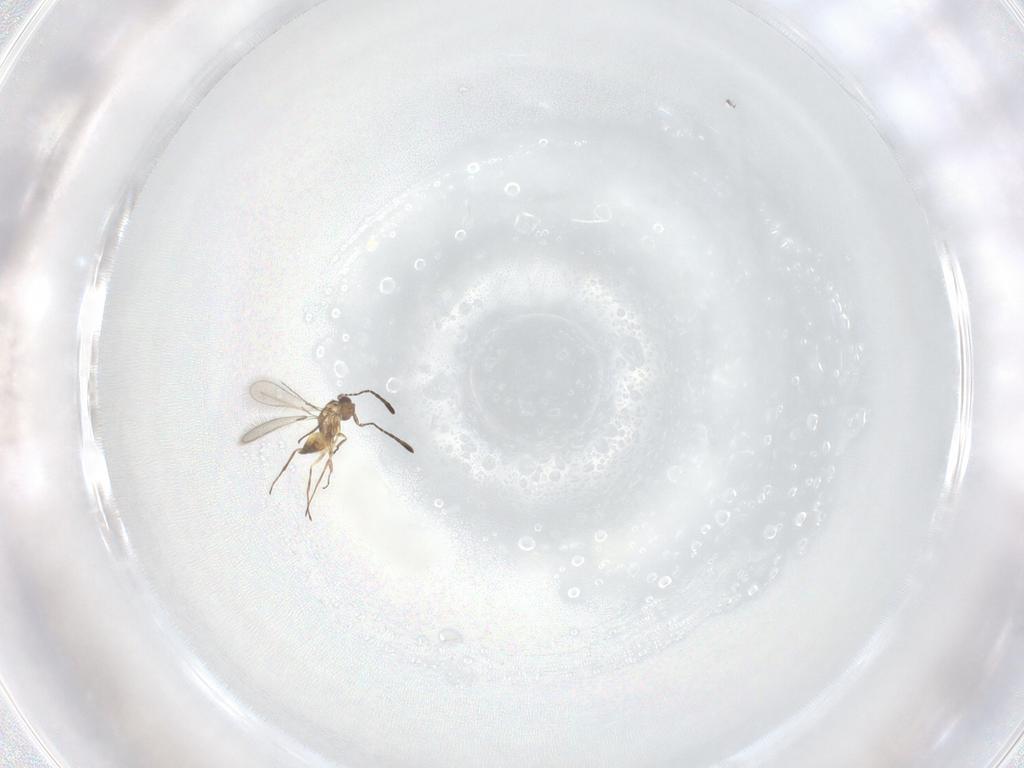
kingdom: Animalia
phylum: Arthropoda
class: Insecta
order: Hymenoptera
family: Mymaridae
